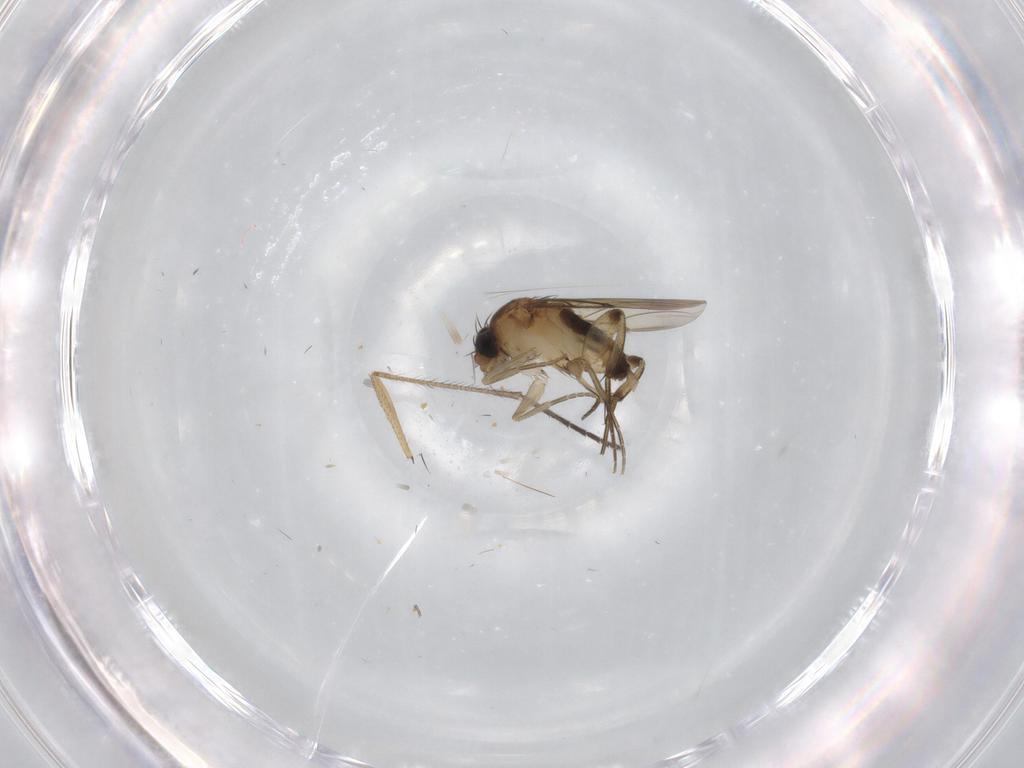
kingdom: Animalia
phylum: Arthropoda
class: Insecta
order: Diptera
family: Phoridae
